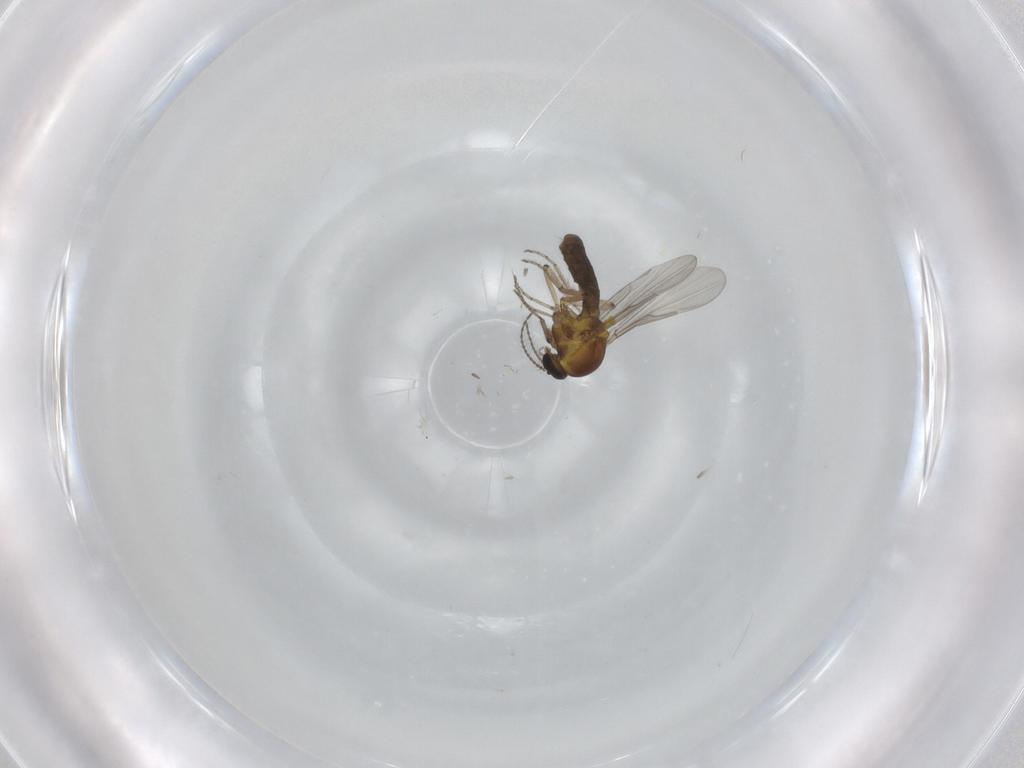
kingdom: Animalia
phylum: Arthropoda
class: Insecta
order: Diptera
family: Ceratopogonidae
